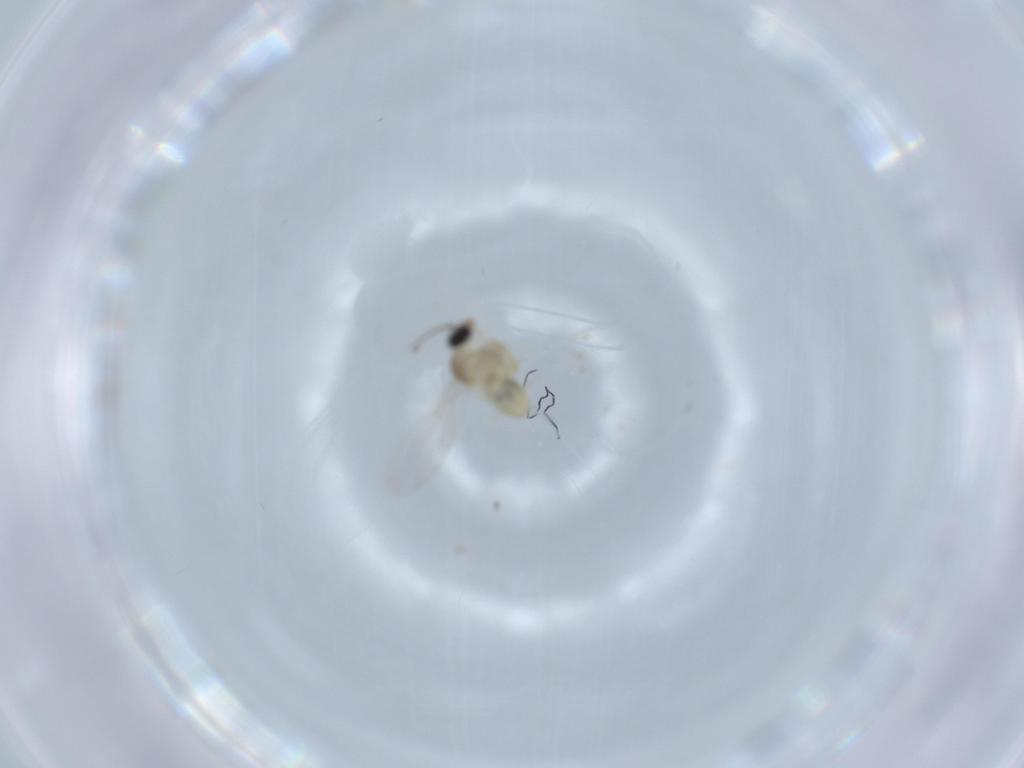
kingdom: Animalia
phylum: Arthropoda
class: Insecta
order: Diptera
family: Cecidomyiidae
